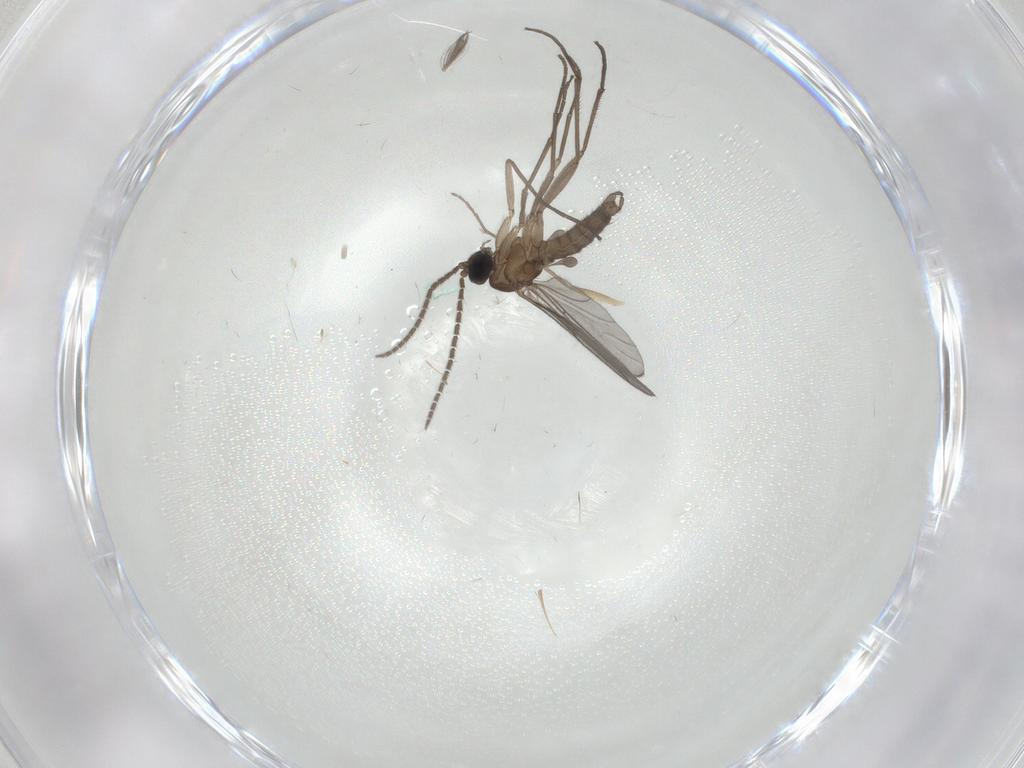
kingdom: Animalia
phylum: Arthropoda
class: Insecta
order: Diptera
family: Sciaridae
